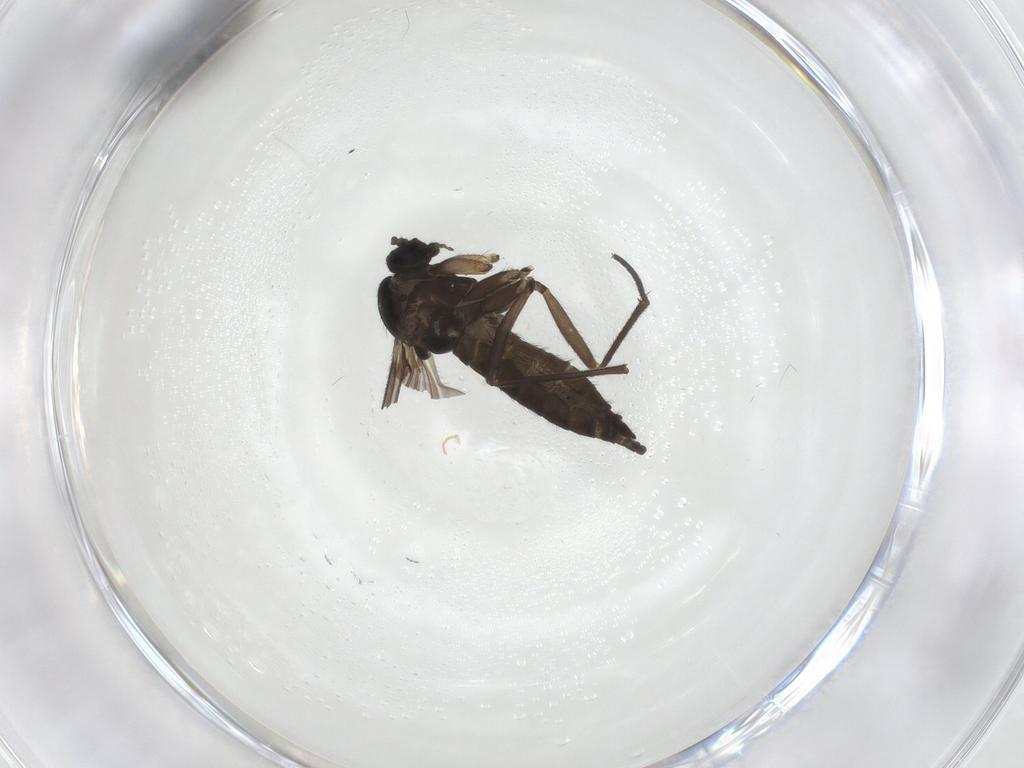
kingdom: Animalia
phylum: Arthropoda
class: Insecta
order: Diptera
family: Sciaridae
